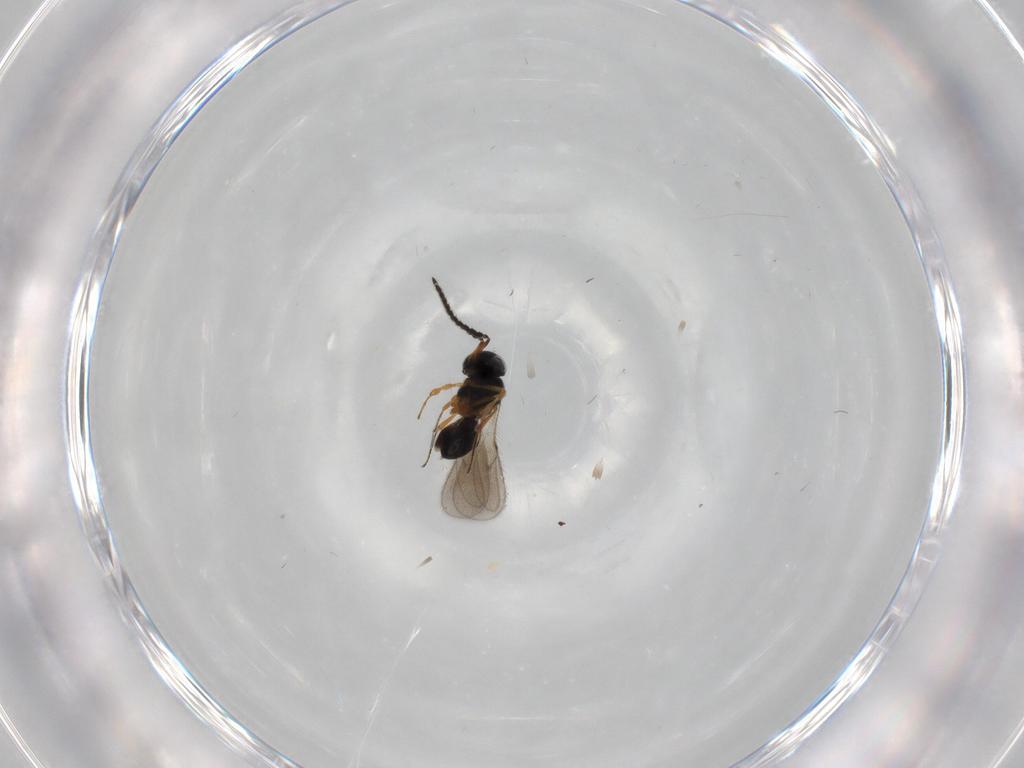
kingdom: Animalia
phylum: Arthropoda
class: Insecta
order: Hymenoptera
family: Scelionidae
